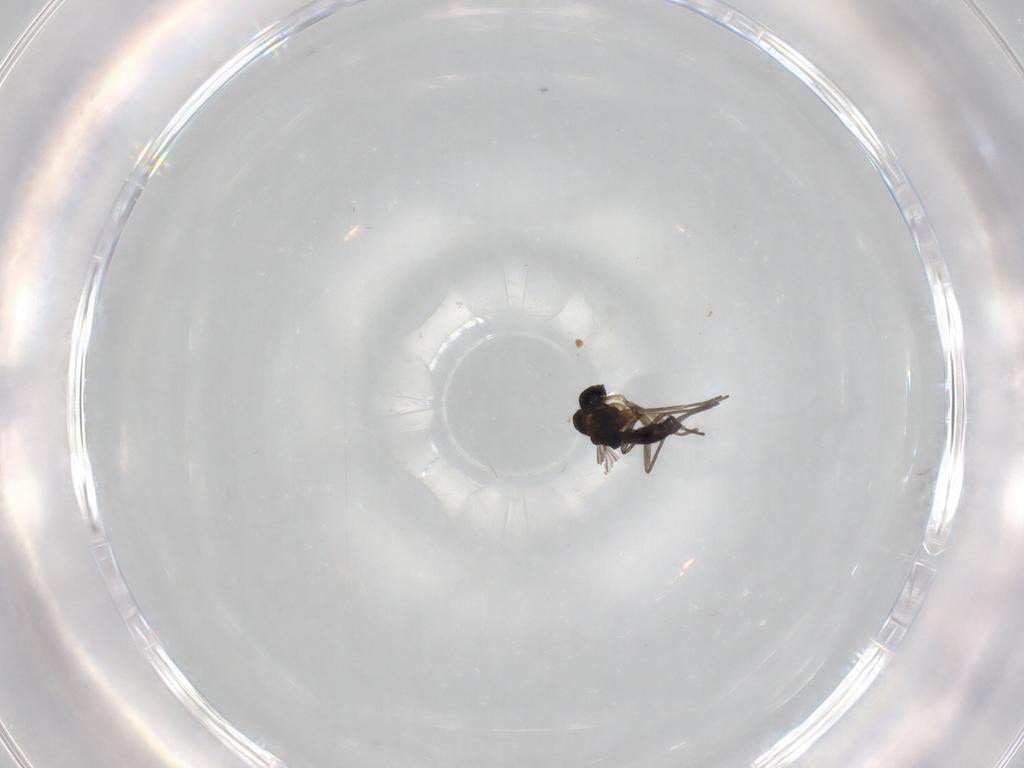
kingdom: Animalia
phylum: Arthropoda
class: Insecta
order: Diptera
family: Sciaridae
